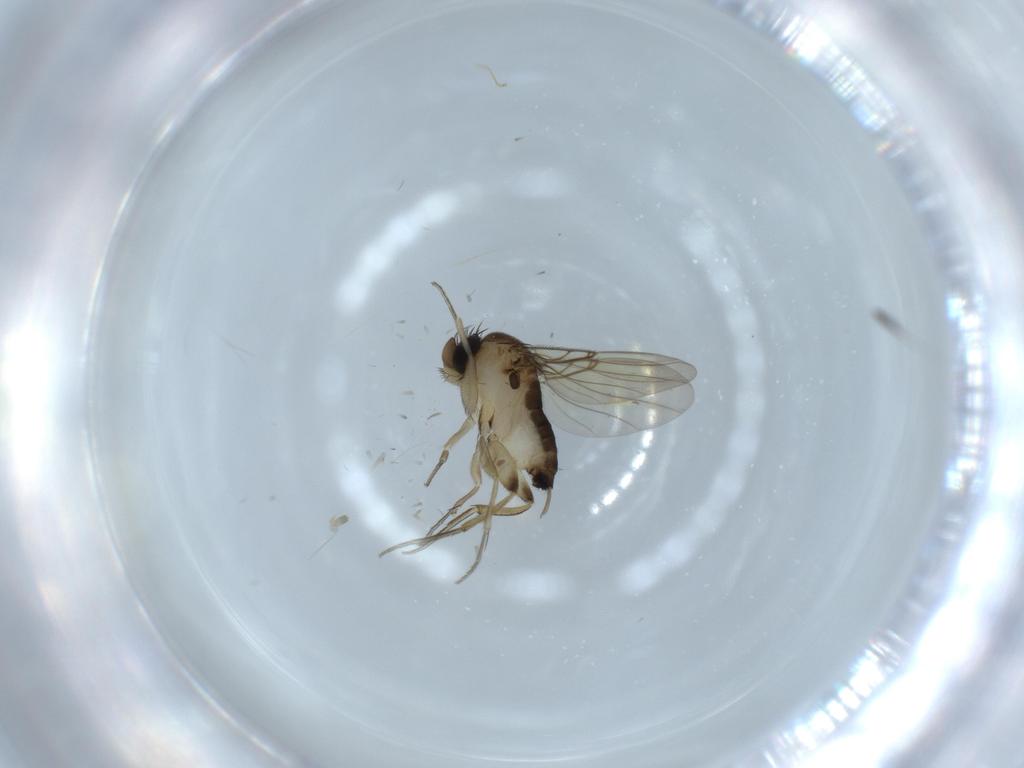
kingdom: Animalia
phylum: Arthropoda
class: Insecta
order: Diptera
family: Phoridae
